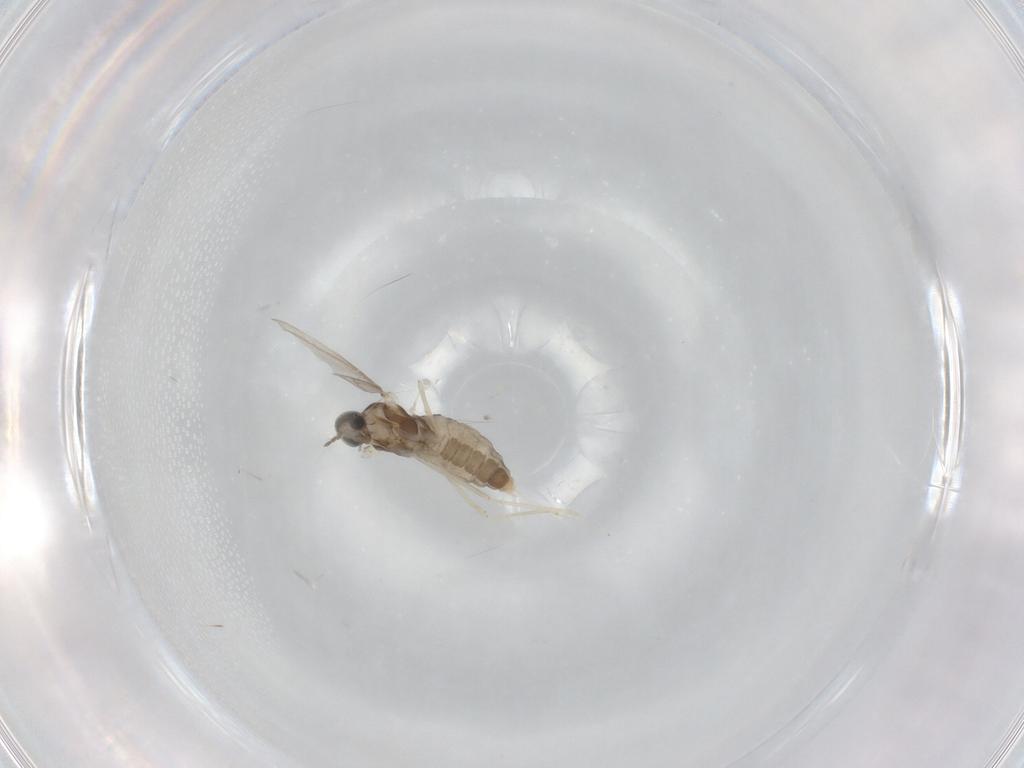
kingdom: Animalia
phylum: Arthropoda
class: Insecta
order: Diptera
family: Cecidomyiidae
